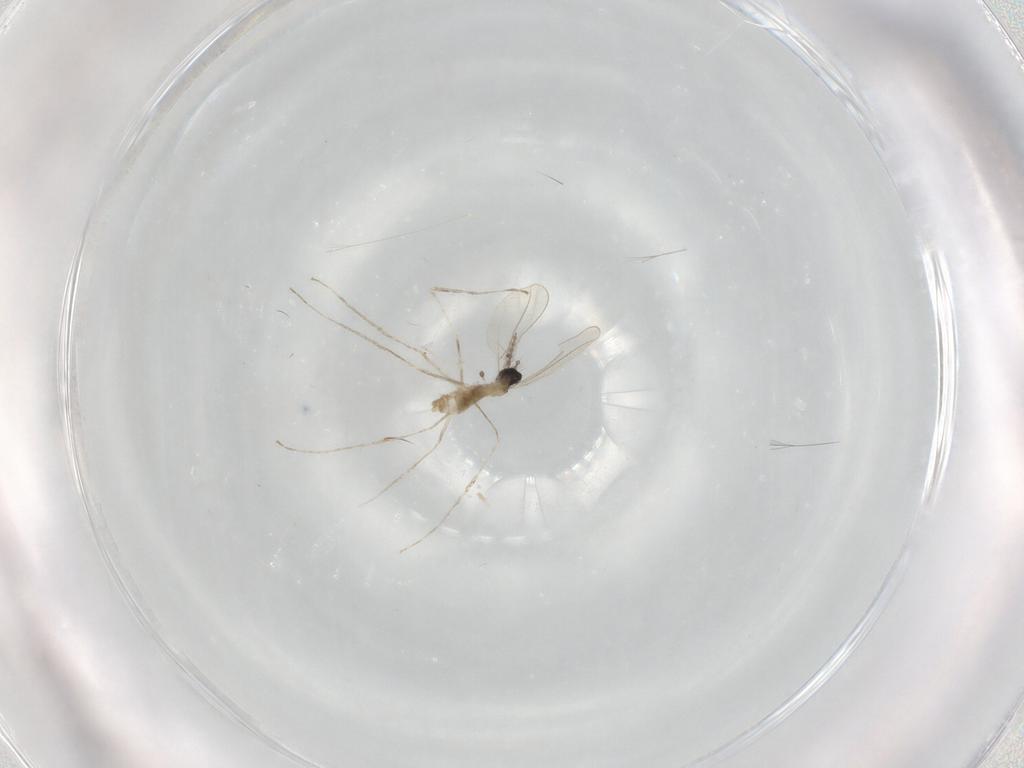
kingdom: Animalia
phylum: Arthropoda
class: Insecta
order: Diptera
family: Cecidomyiidae
